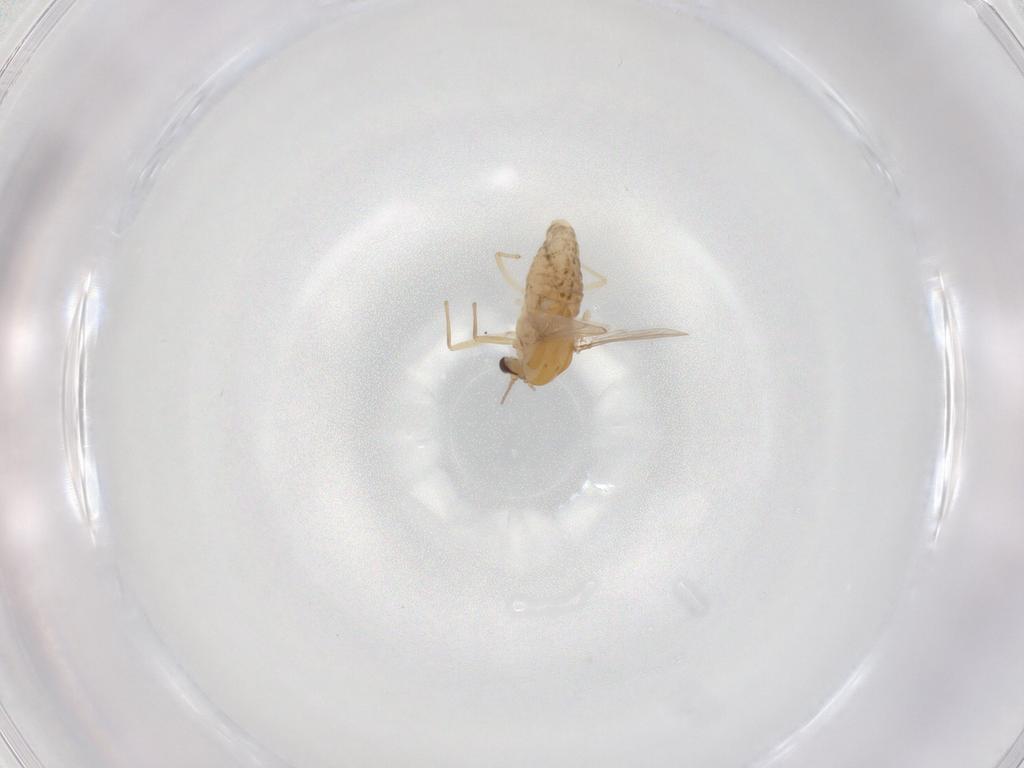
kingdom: Animalia
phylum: Arthropoda
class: Insecta
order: Diptera
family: Chironomidae
